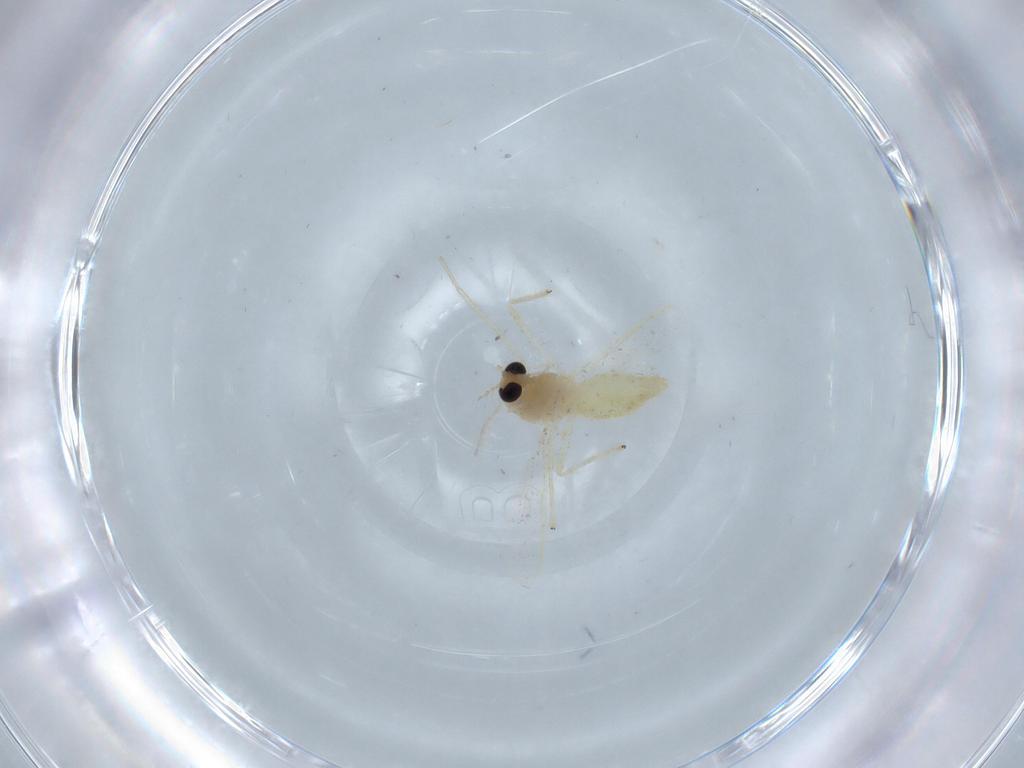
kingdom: Animalia
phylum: Arthropoda
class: Insecta
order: Diptera
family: Chironomidae
